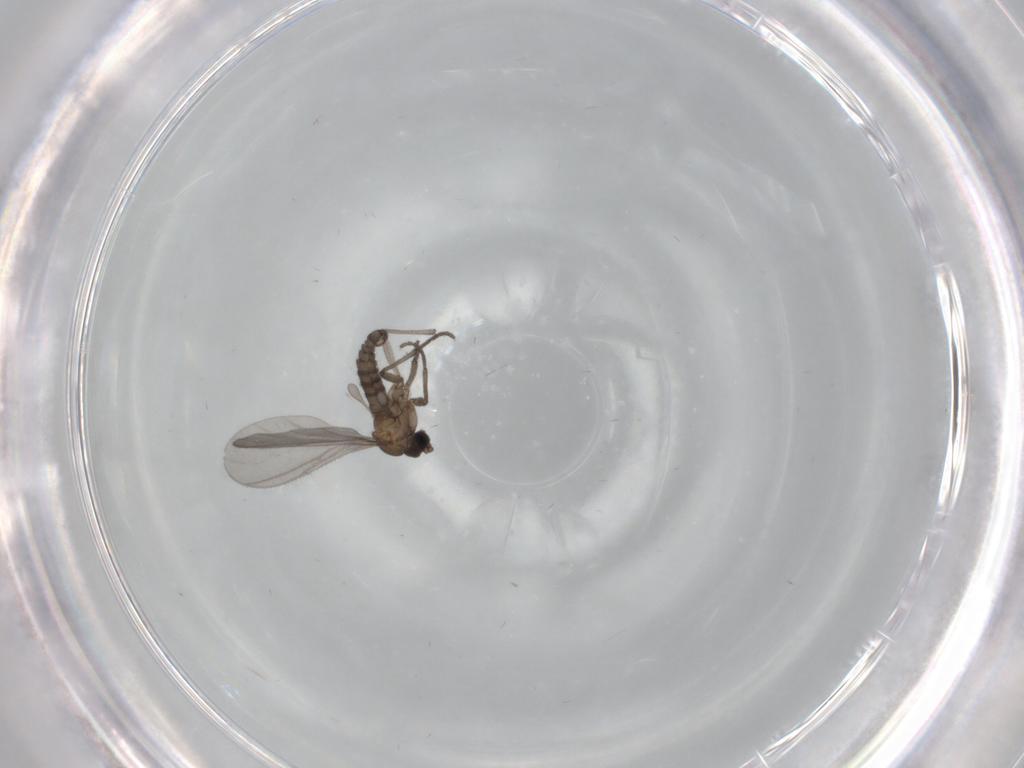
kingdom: Animalia
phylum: Arthropoda
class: Insecta
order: Diptera
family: Sciaridae
